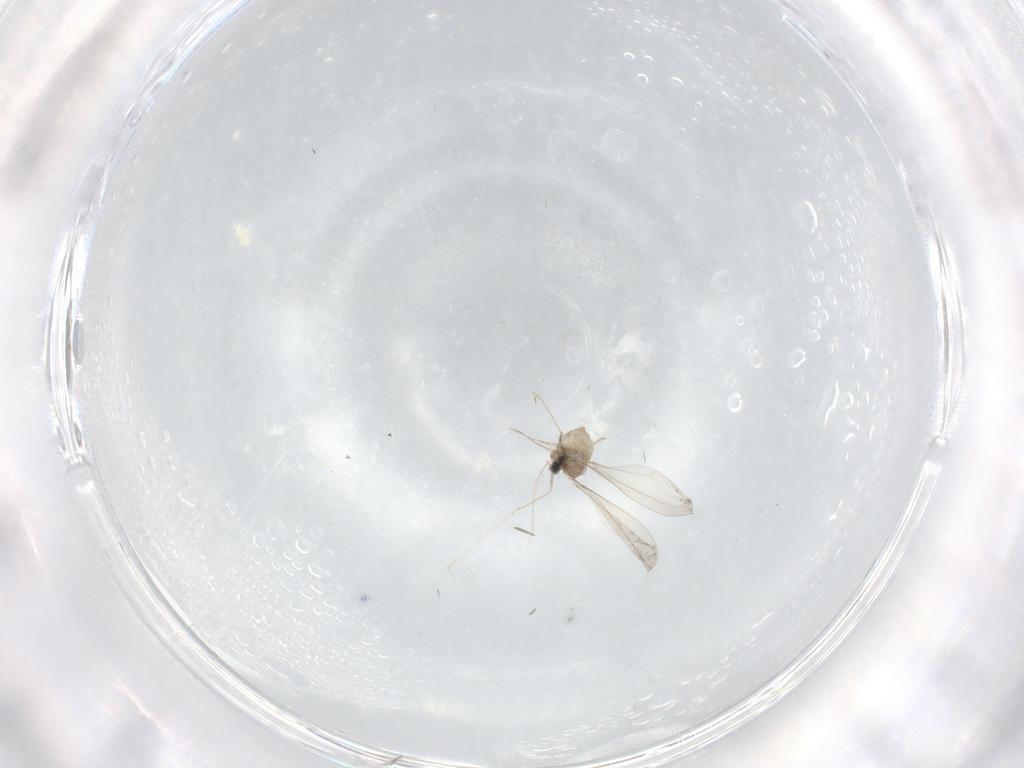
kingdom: Animalia
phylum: Arthropoda
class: Insecta
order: Diptera
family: Cecidomyiidae
